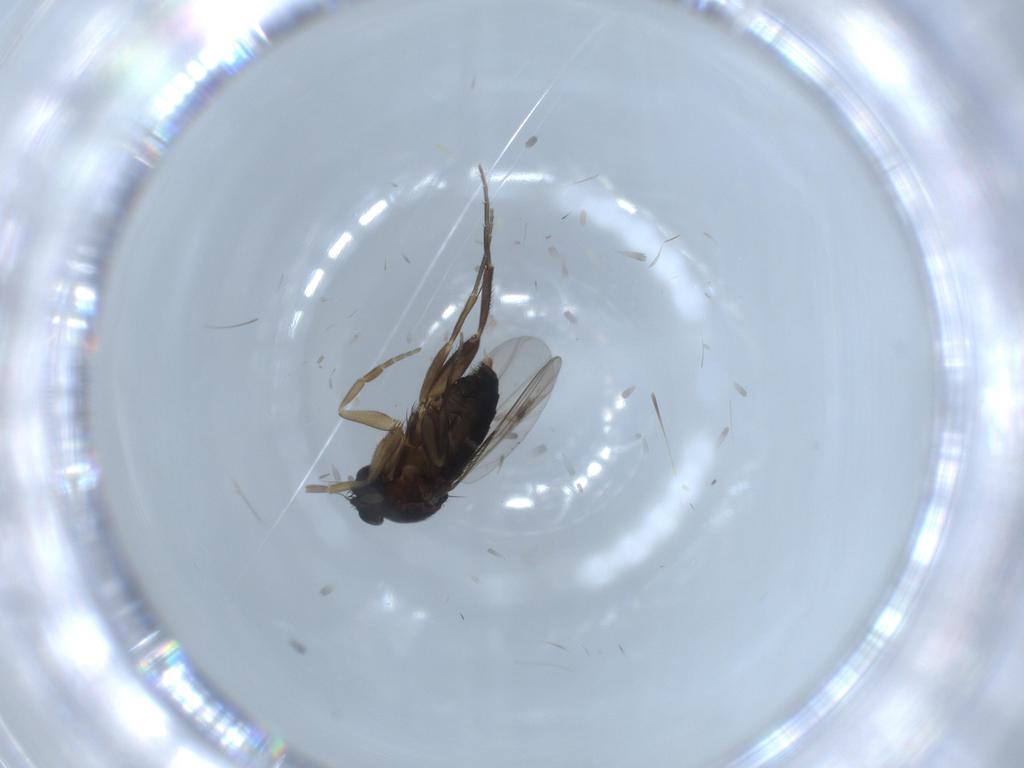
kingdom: Animalia
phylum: Arthropoda
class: Insecta
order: Diptera
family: Phoridae
